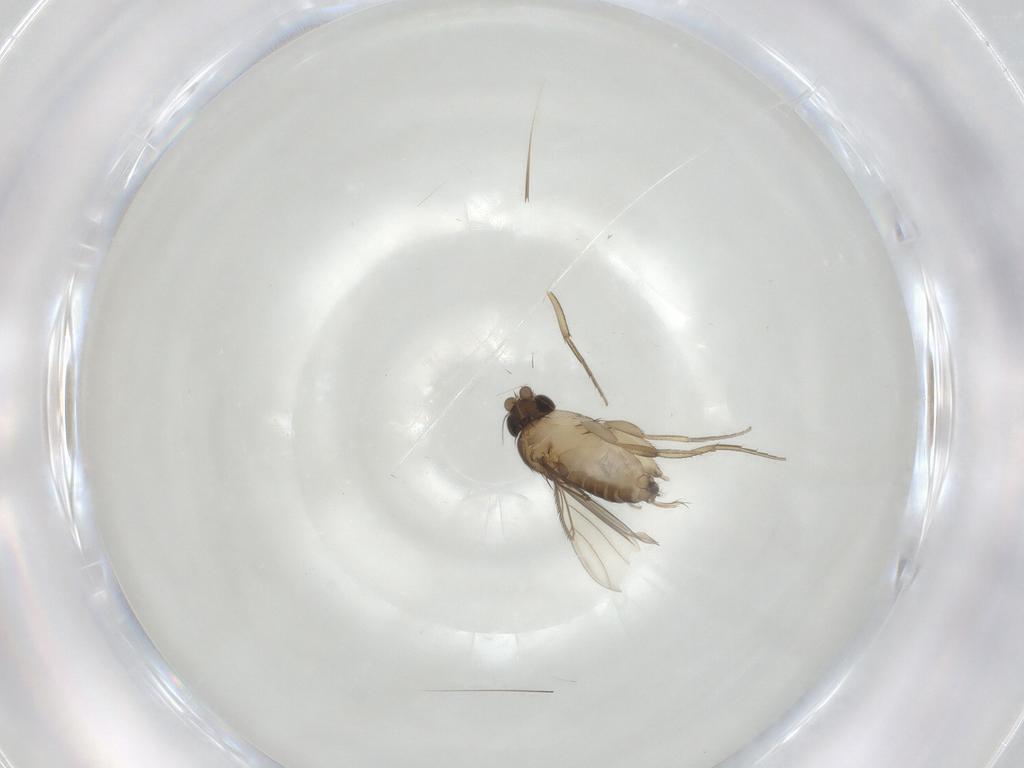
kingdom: Animalia
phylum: Arthropoda
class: Insecta
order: Diptera
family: Phoridae
